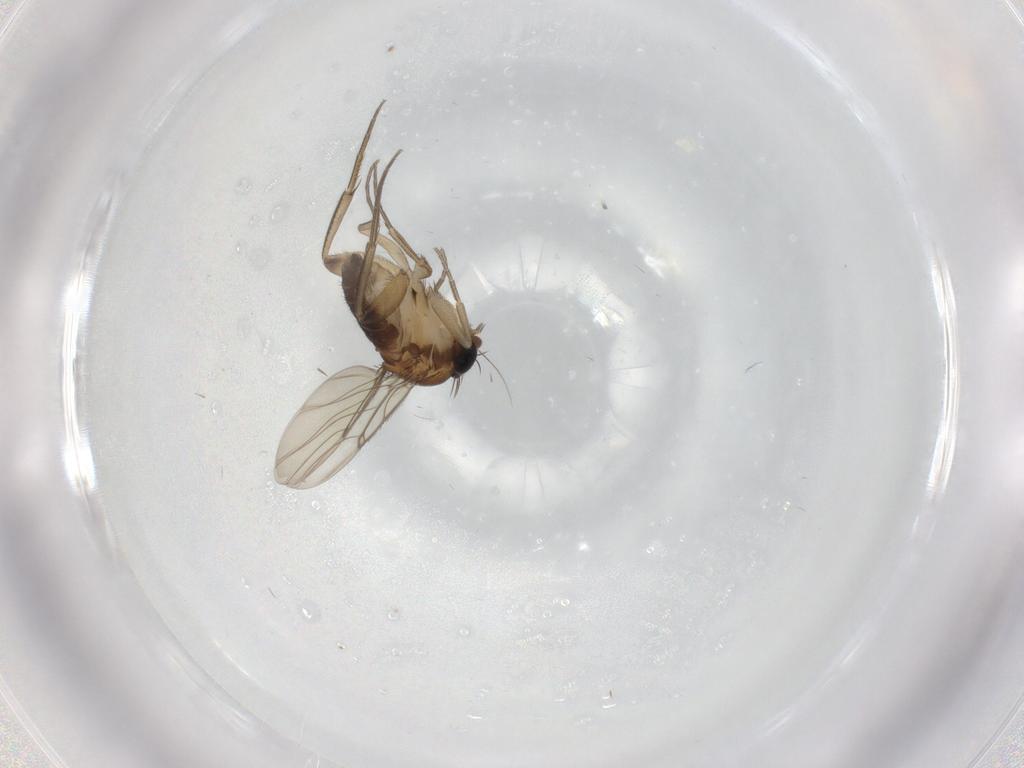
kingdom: Animalia
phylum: Arthropoda
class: Insecta
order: Diptera
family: Phoridae
